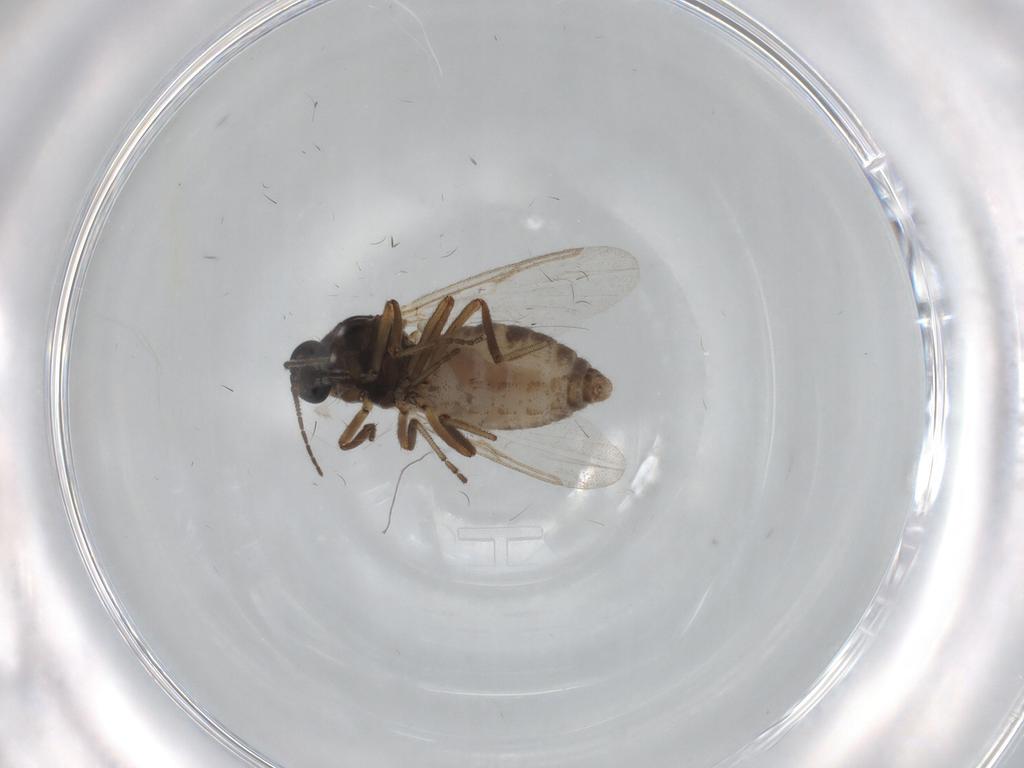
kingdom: Animalia
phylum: Arthropoda
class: Insecta
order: Diptera
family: Ceratopogonidae
